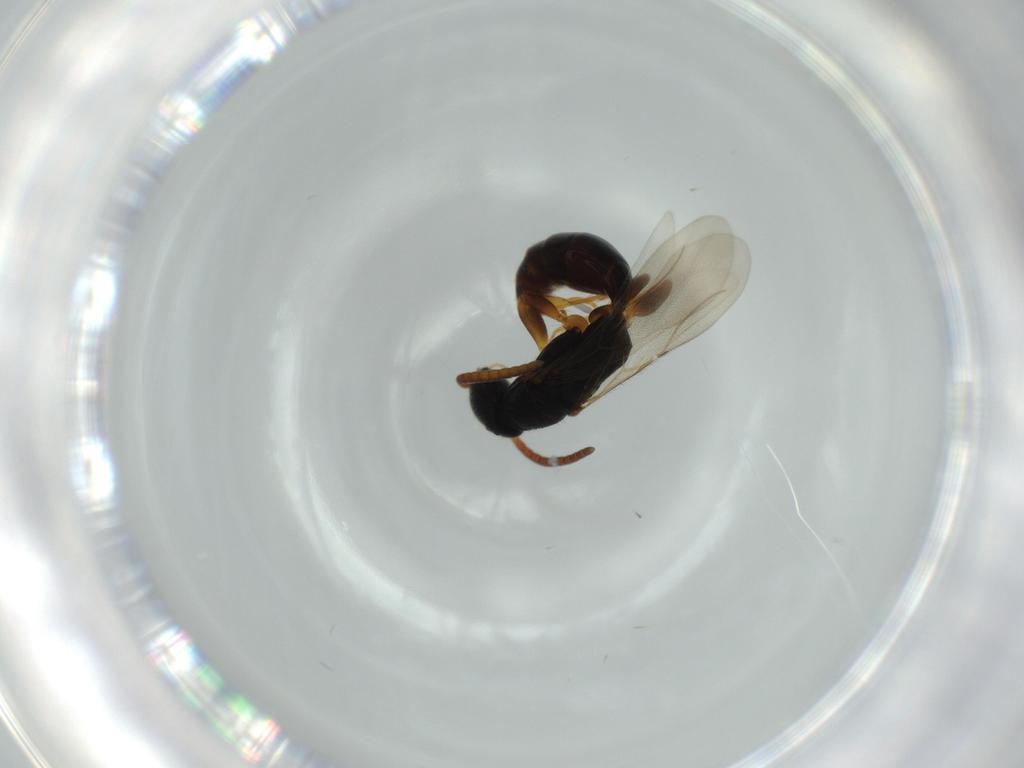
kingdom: Animalia
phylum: Arthropoda
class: Insecta
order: Hymenoptera
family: Bethylidae
